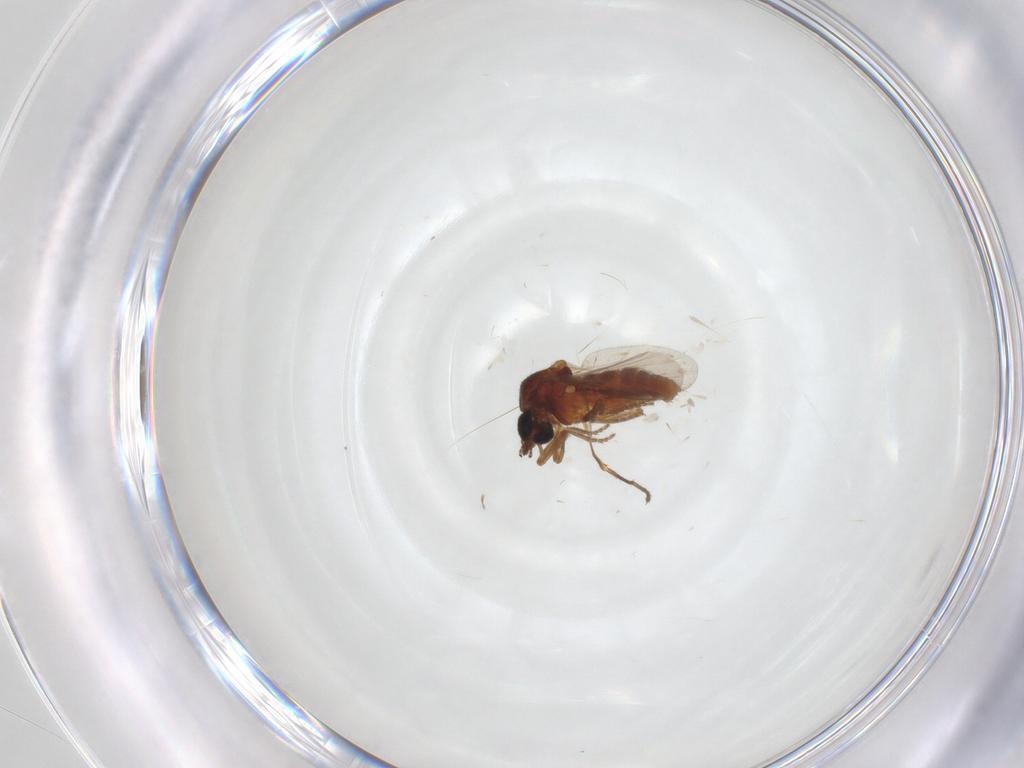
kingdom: Animalia
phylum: Arthropoda
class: Insecta
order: Diptera
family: Ceratopogonidae
